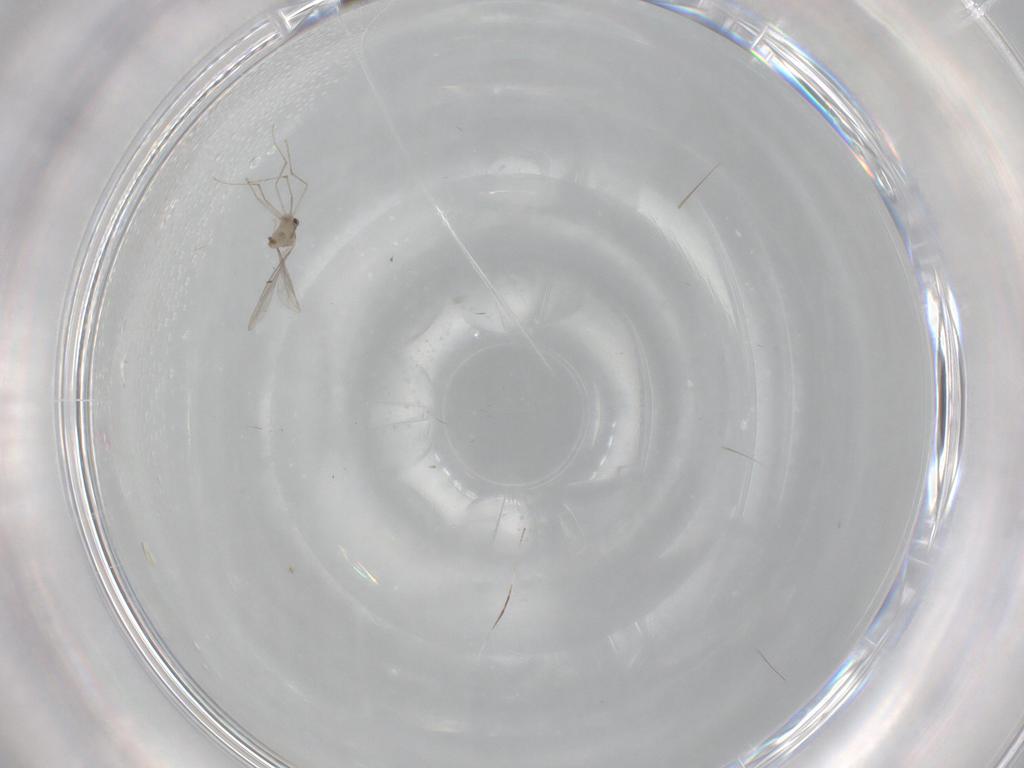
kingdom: Animalia
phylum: Arthropoda
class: Insecta
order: Diptera
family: Phoridae
